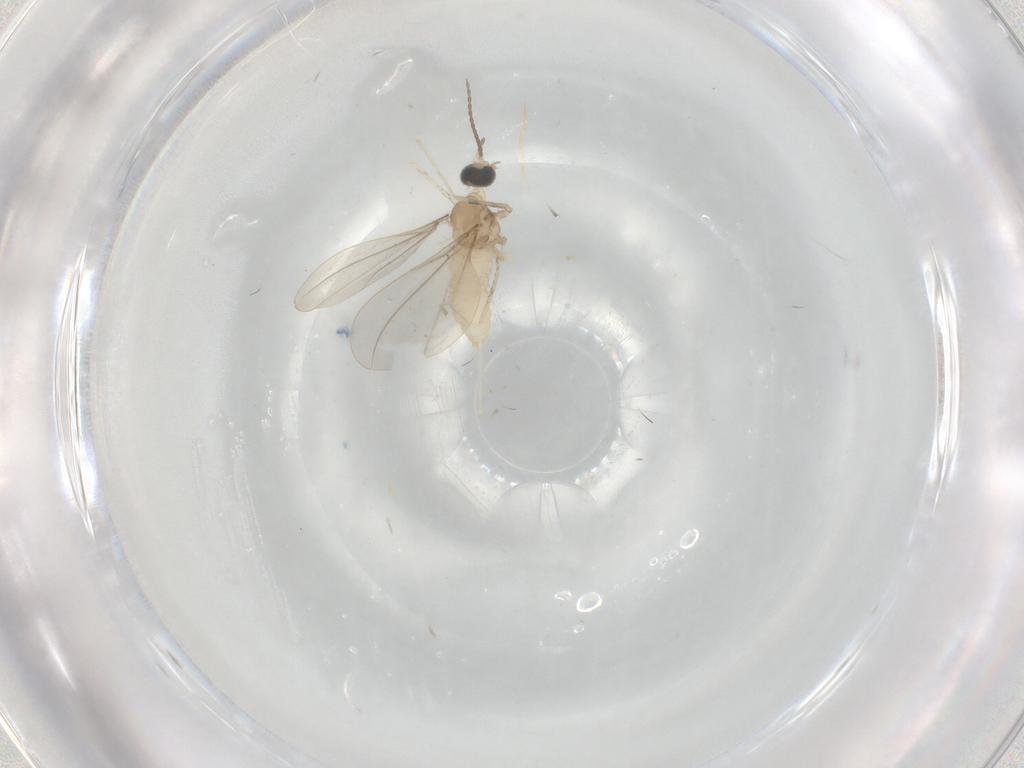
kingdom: Animalia
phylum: Arthropoda
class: Insecta
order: Diptera
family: Cecidomyiidae
